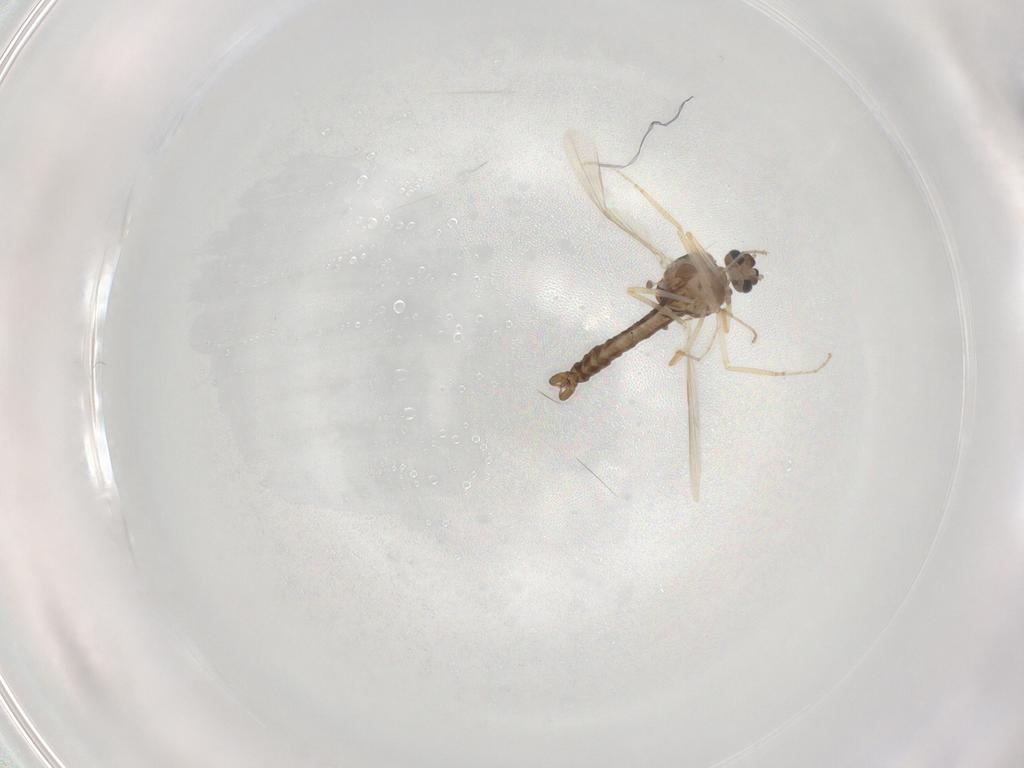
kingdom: Animalia
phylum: Arthropoda
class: Insecta
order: Diptera
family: Ceratopogonidae
